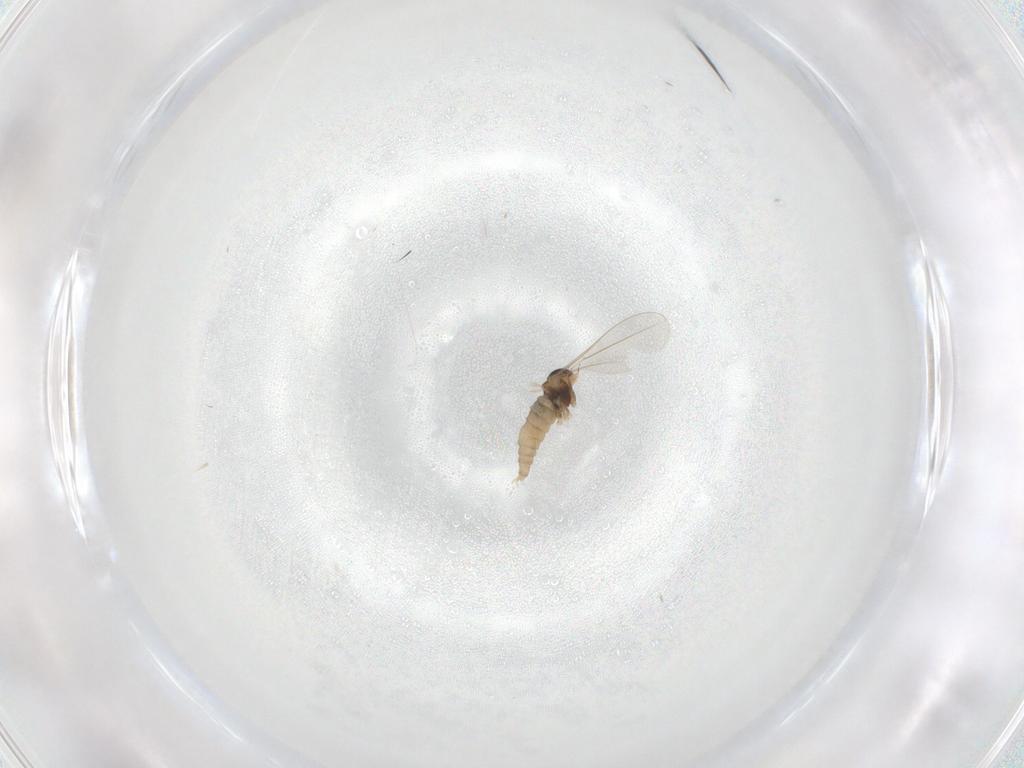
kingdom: Animalia
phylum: Arthropoda
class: Insecta
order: Diptera
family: Cecidomyiidae
